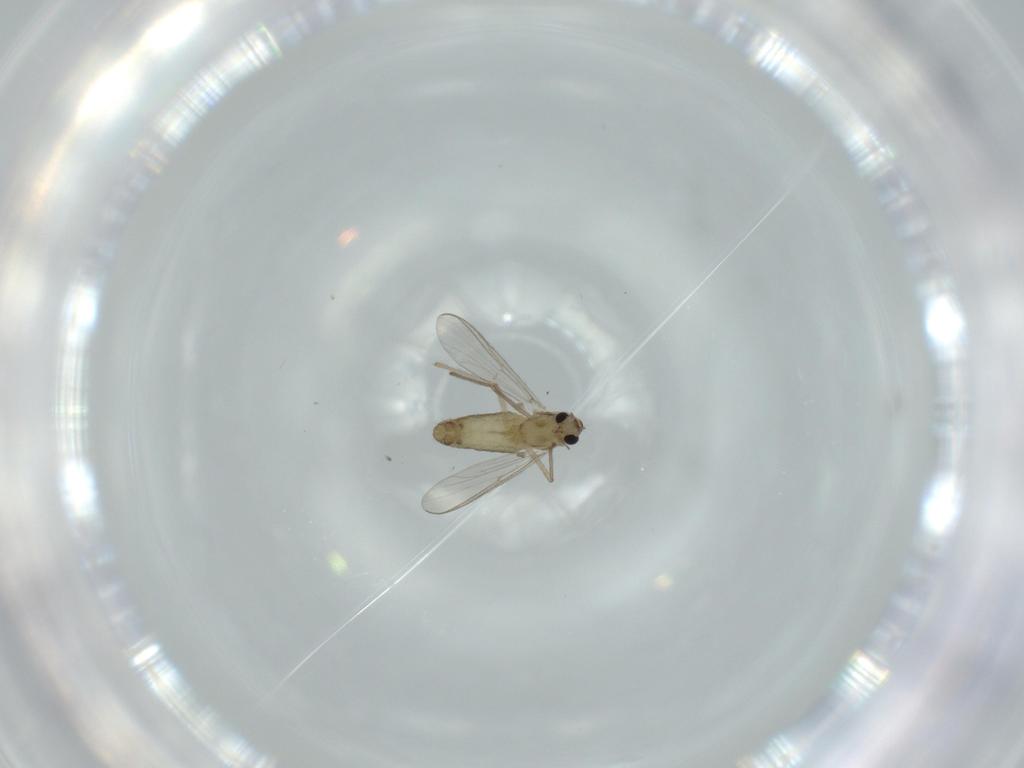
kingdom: Animalia
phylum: Arthropoda
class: Insecta
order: Diptera
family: Chironomidae
